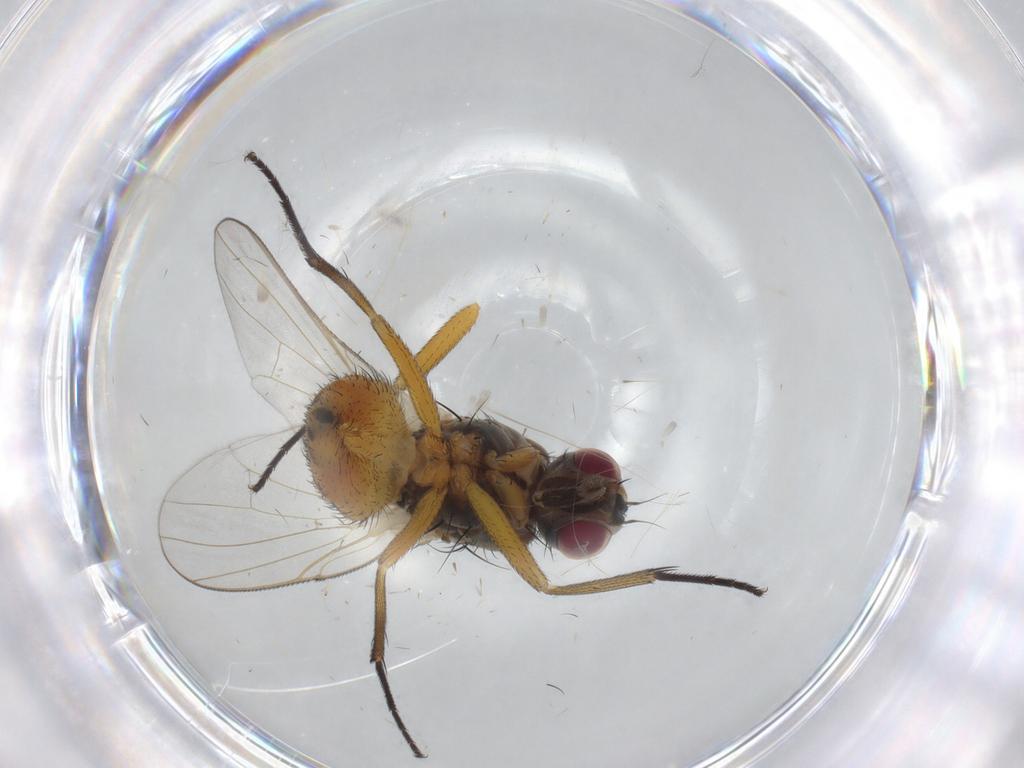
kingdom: Animalia
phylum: Arthropoda
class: Insecta
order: Diptera
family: Muscidae
